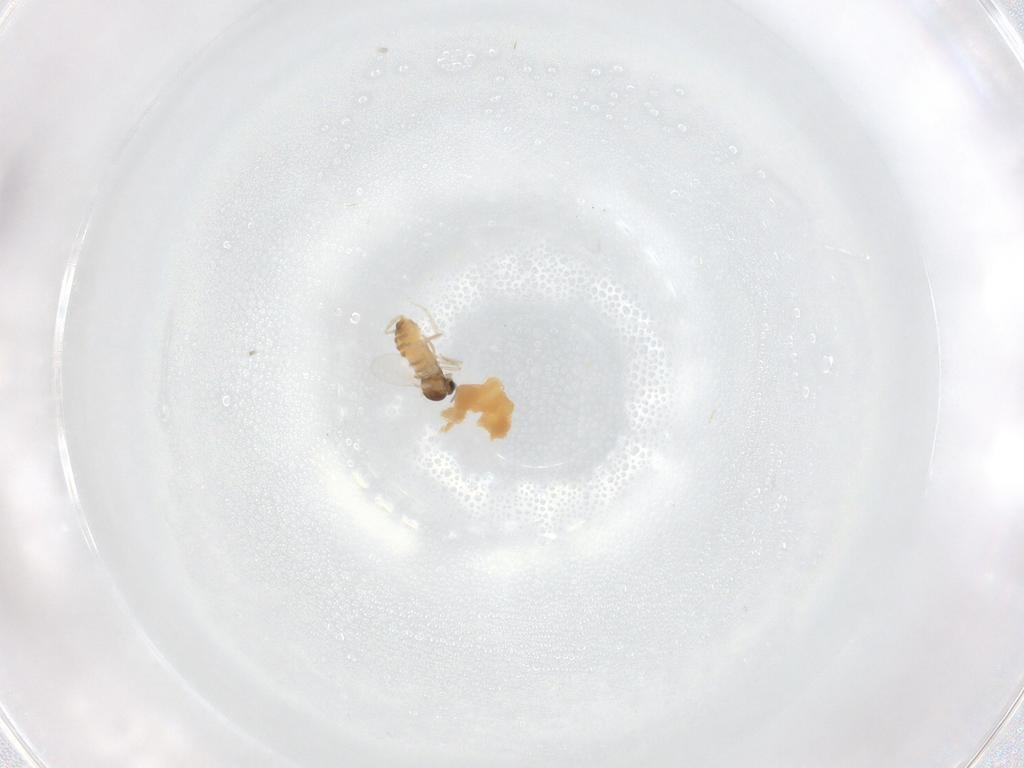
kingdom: Animalia
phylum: Arthropoda
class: Insecta
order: Diptera
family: Cecidomyiidae
